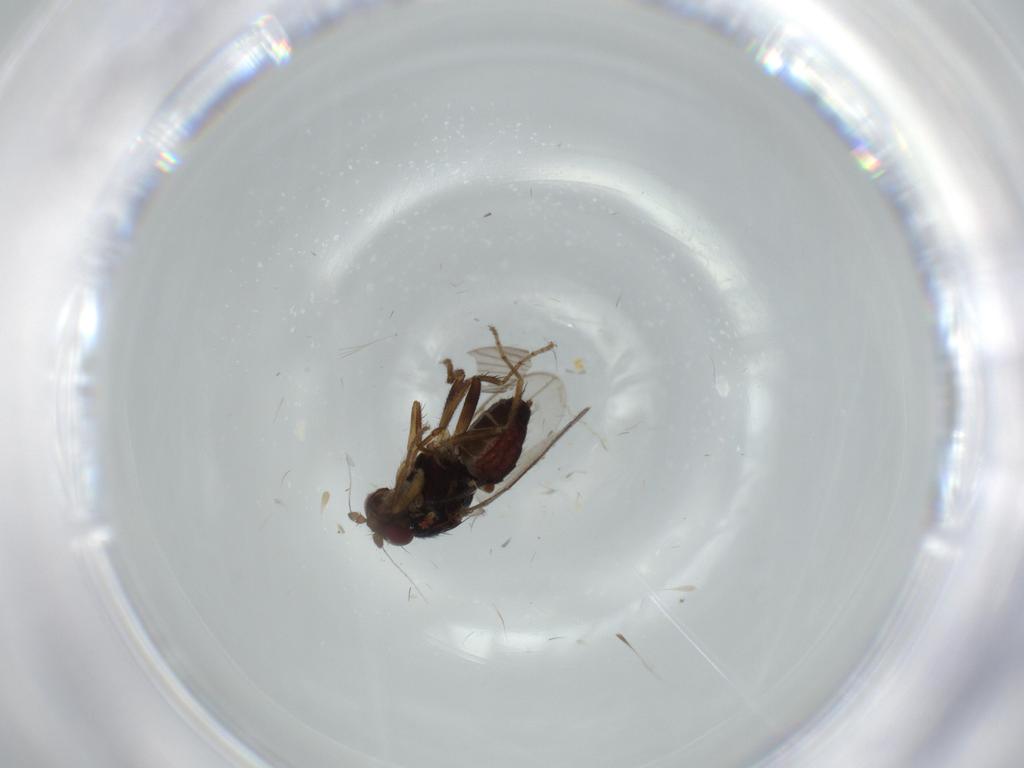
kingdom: Animalia
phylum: Arthropoda
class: Insecta
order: Diptera
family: Sphaeroceridae
